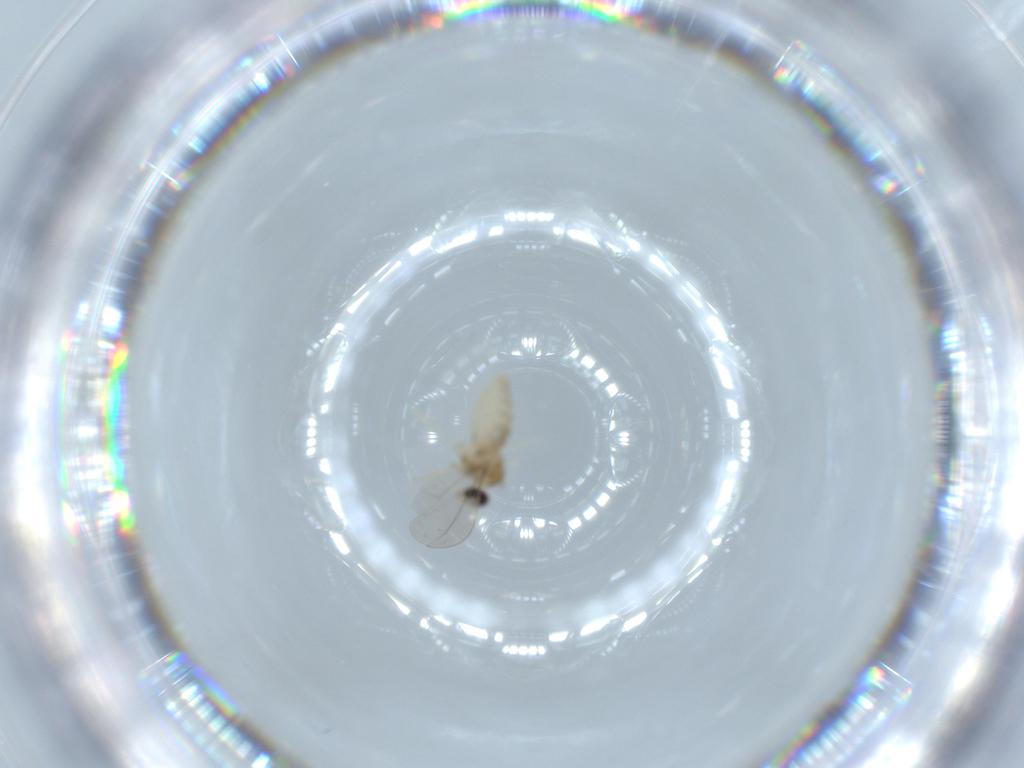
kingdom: Animalia
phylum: Arthropoda
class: Insecta
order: Diptera
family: Cecidomyiidae
